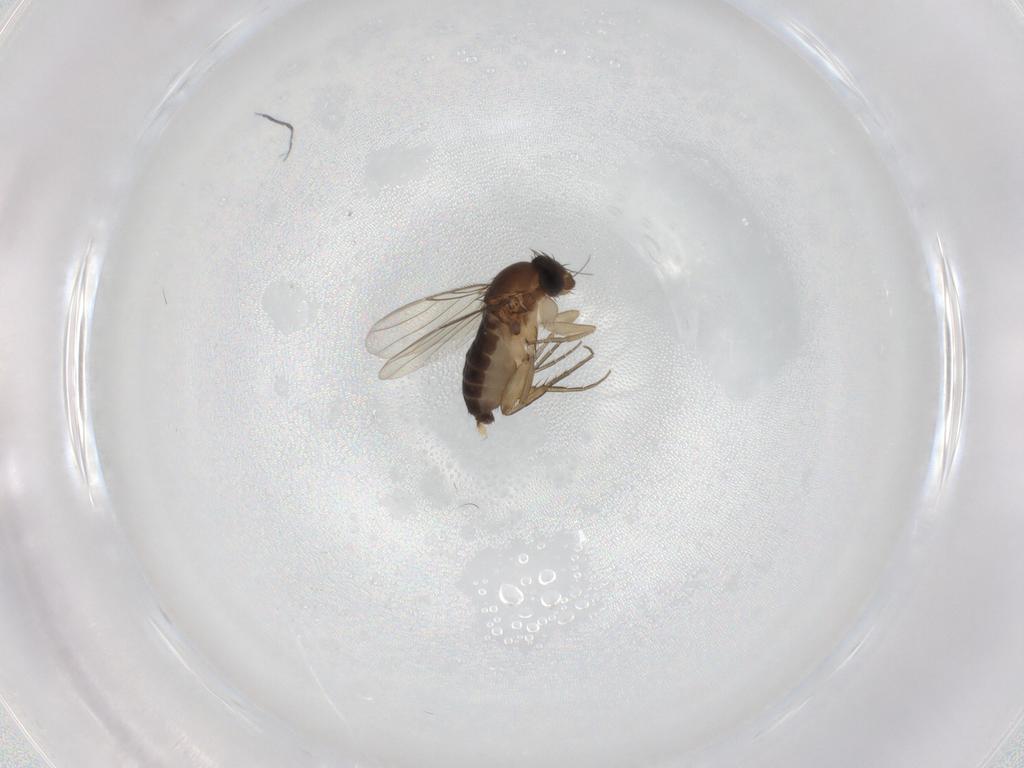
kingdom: Animalia
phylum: Arthropoda
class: Insecta
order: Diptera
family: Phoridae
